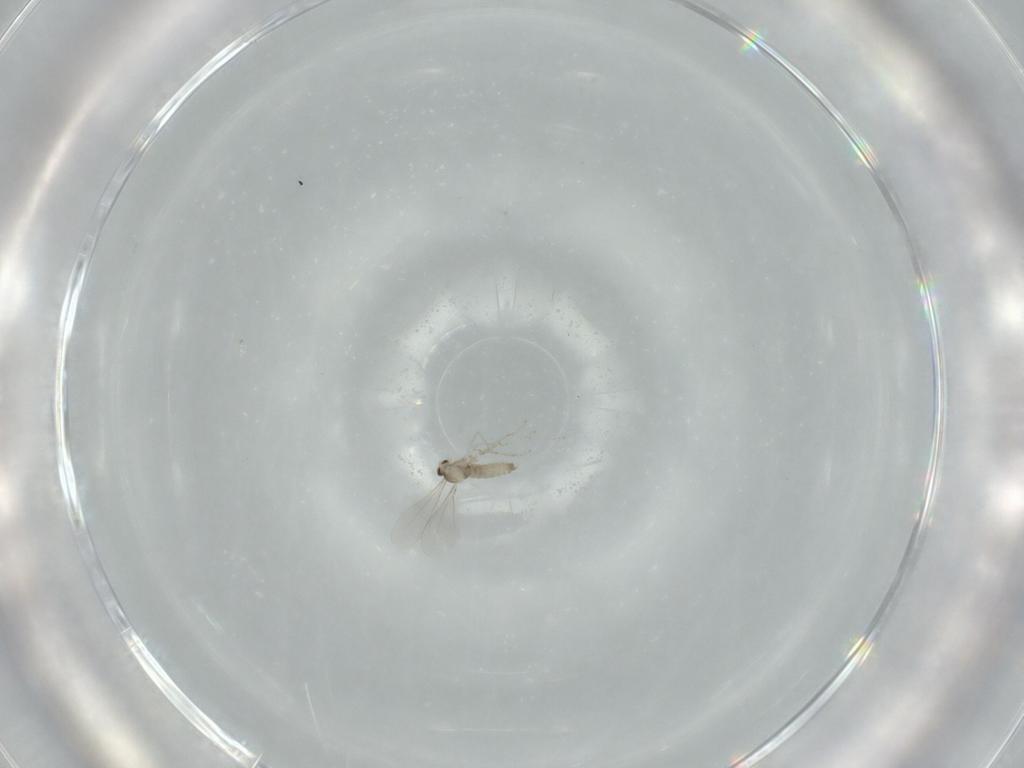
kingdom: Animalia
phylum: Arthropoda
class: Insecta
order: Diptera
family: Cecidomyiidae
